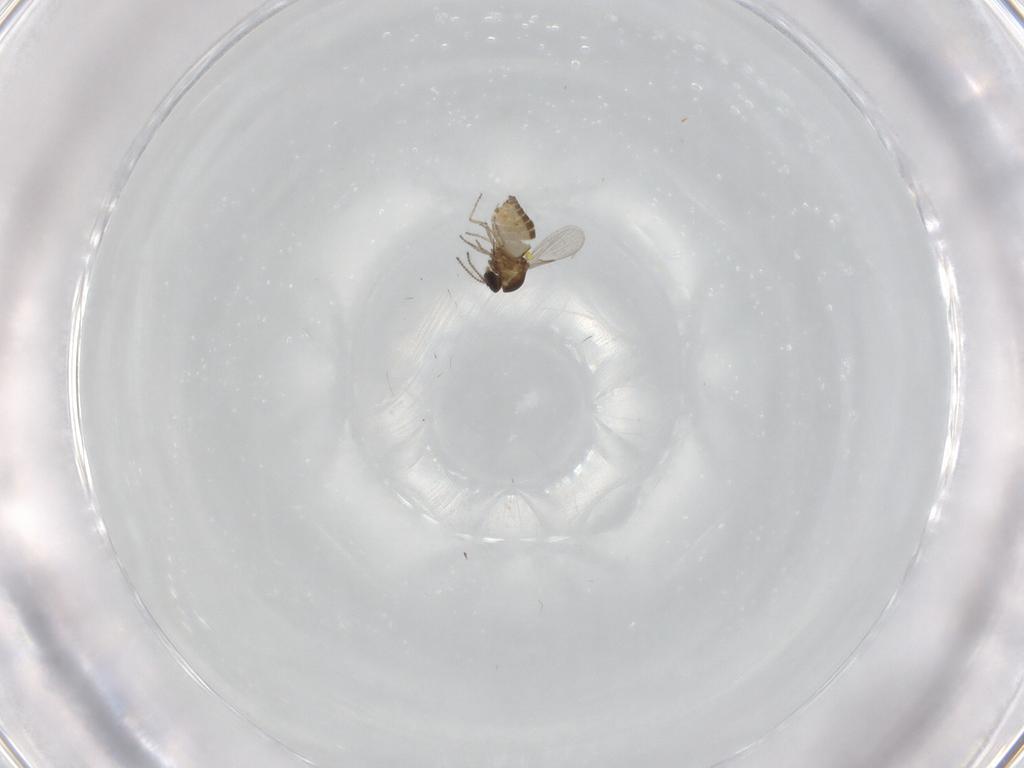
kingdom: Animalia
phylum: Arthropoda
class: Insecta
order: Diptera
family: Ceratopogonidae
